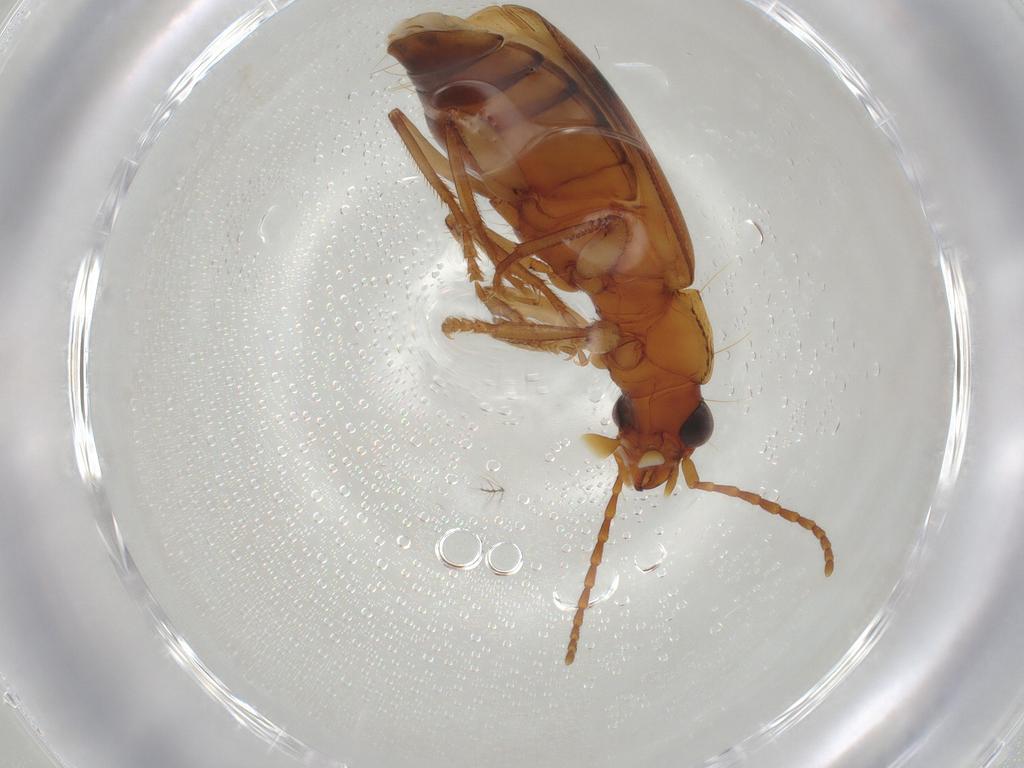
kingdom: Animalia
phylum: Arthropoda
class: Insecta
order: Coleoptera
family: Carabidae
